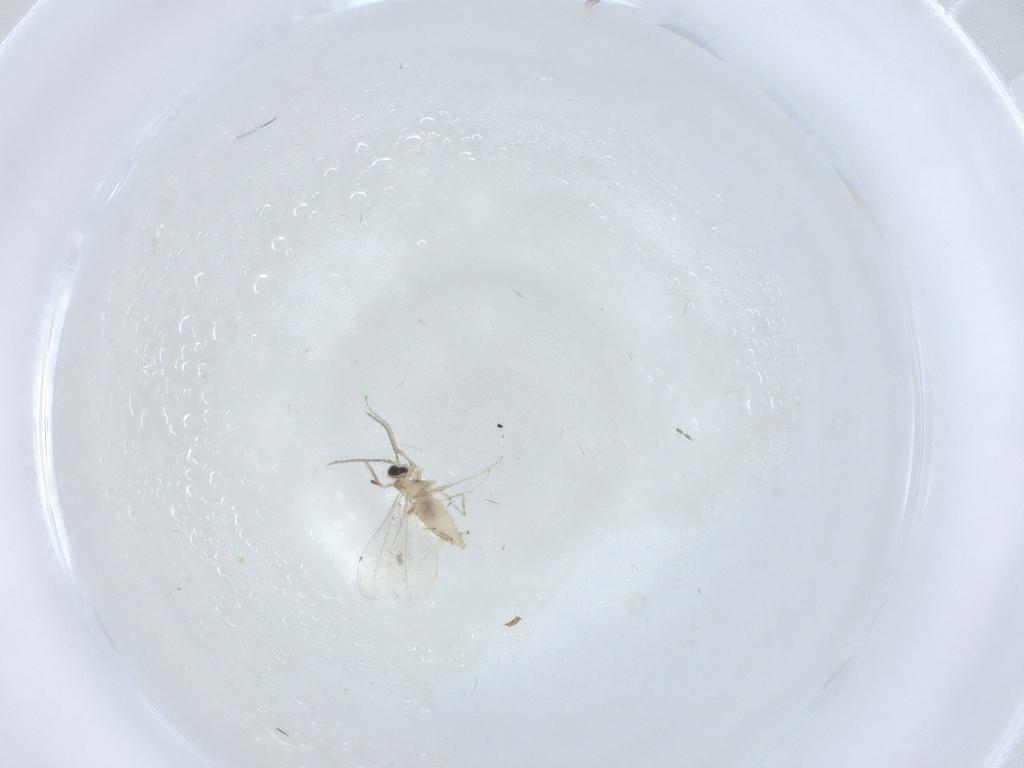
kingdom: Animalia
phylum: Arthropoda
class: Insecta
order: Diptera
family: Cecidomyiidae
